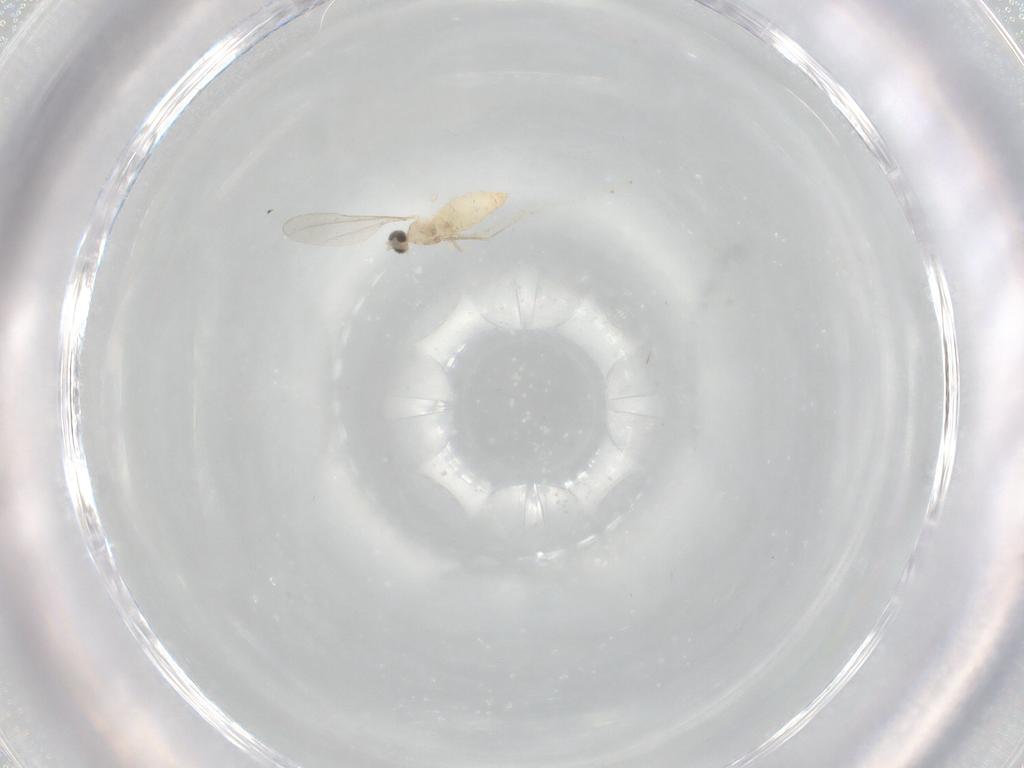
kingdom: Animalia
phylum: Arthropoda
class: Insecta
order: Diptera
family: Cecidomyiidae
